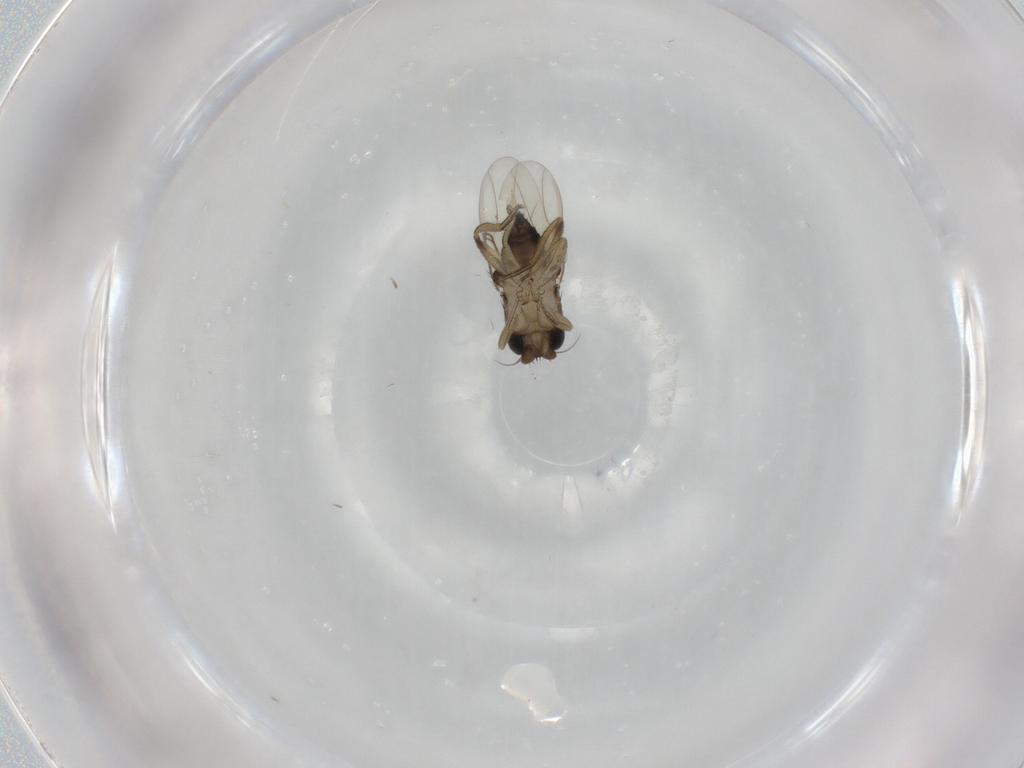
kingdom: Animalia
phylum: Arthropoda
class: Insecta
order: Diptera
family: Phoridae
